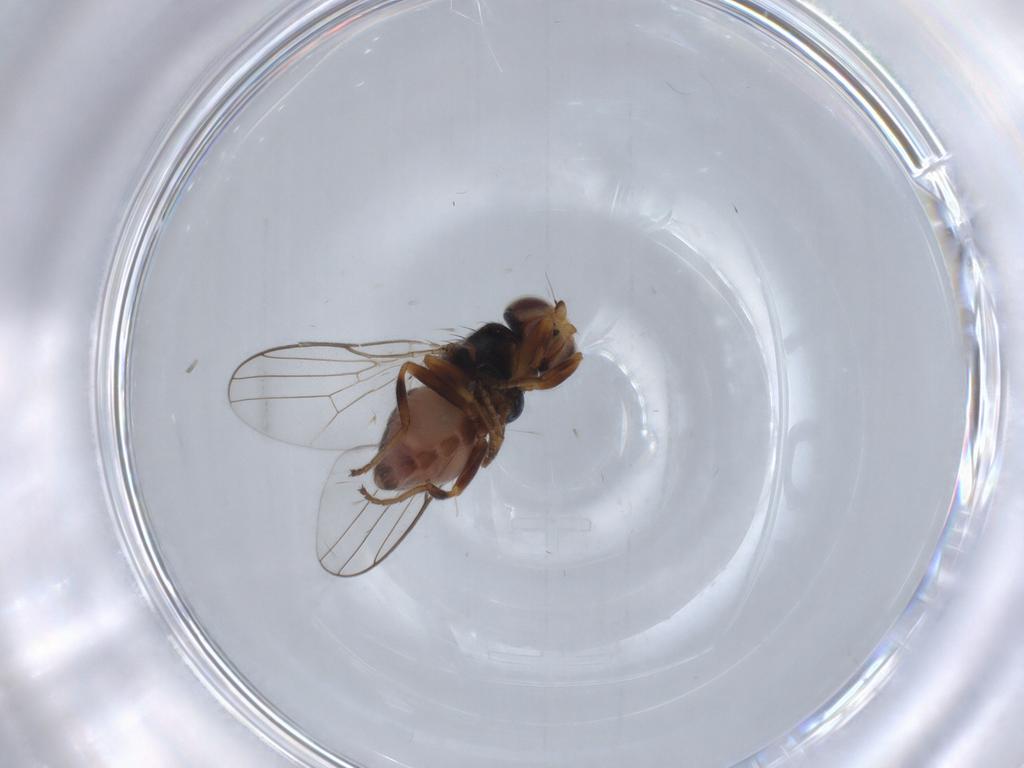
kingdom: Animalia
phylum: Arthropoda
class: Insecta
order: Diptera
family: Chloropidae
